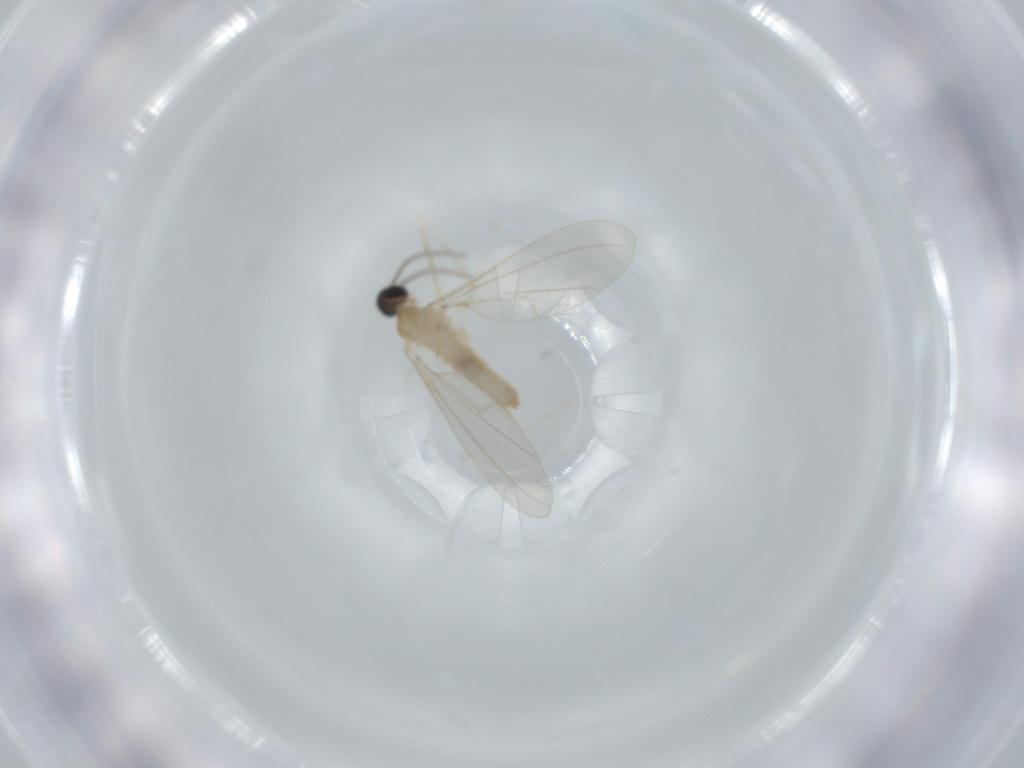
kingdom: Animalia
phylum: Arthropoda
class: Insecta
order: Diptera
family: Cecidomyiidae
